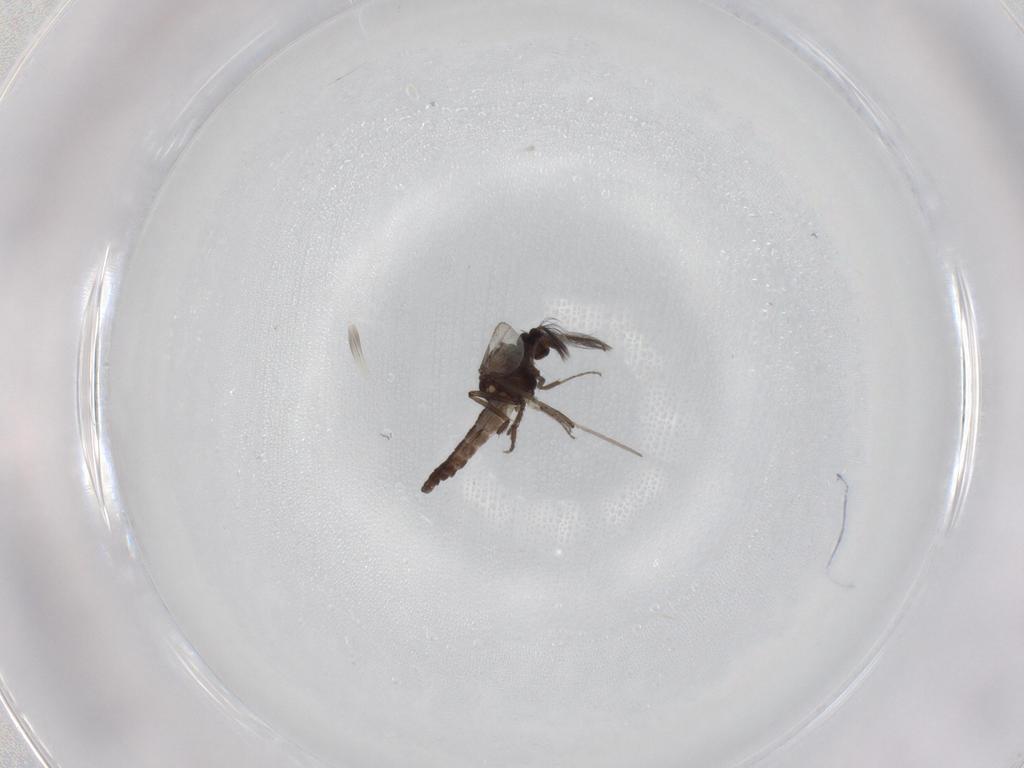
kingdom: Animalia
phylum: Arthropoda
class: Insecta
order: Diptera
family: Ceratopogonidae
